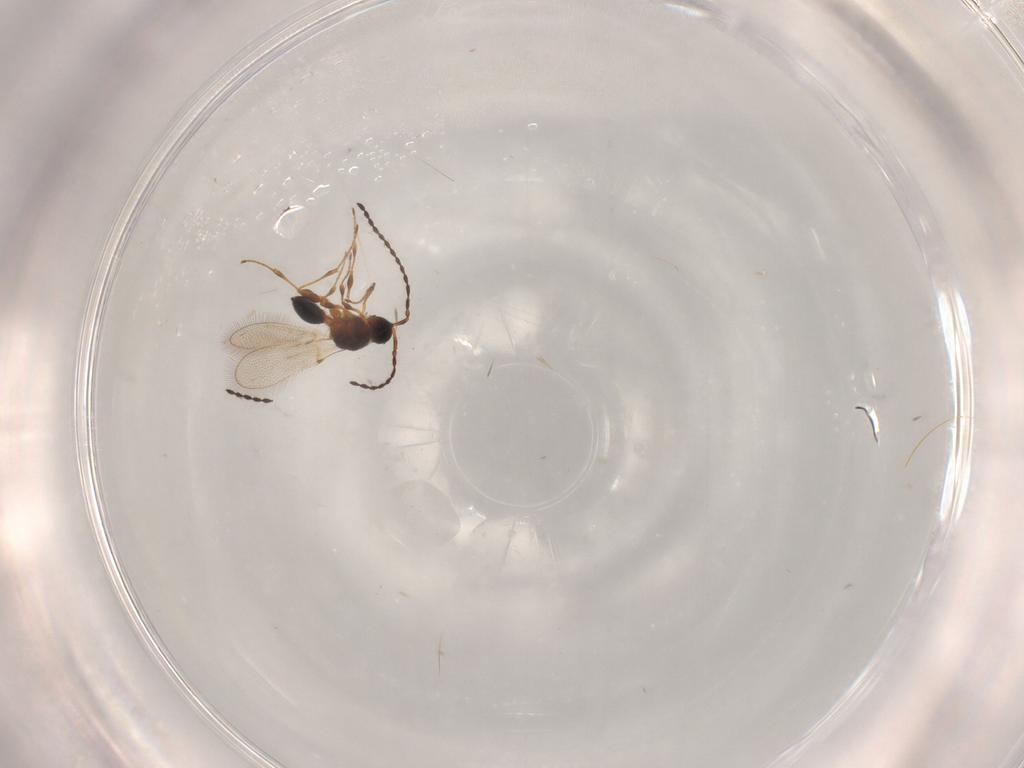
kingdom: Animalia
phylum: Arthropoda
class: Insecta
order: Hymenoptera
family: Diapriidae
